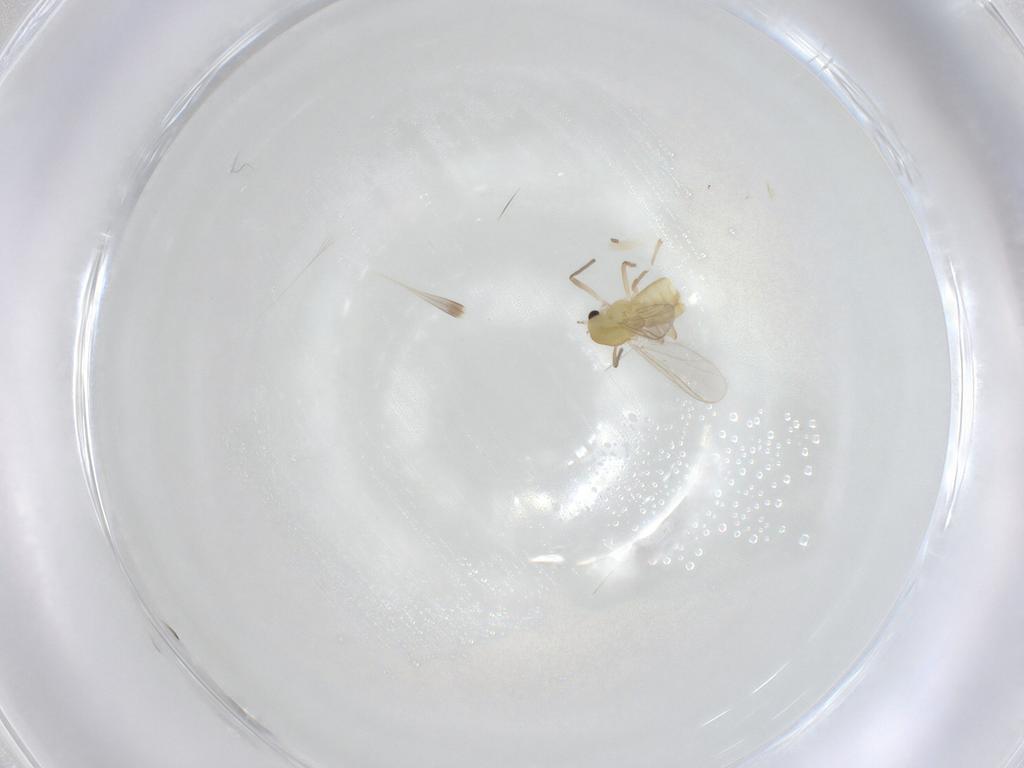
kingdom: Animalia
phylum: Arthropoda
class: Insecta
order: Diptera
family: Chironomidae
